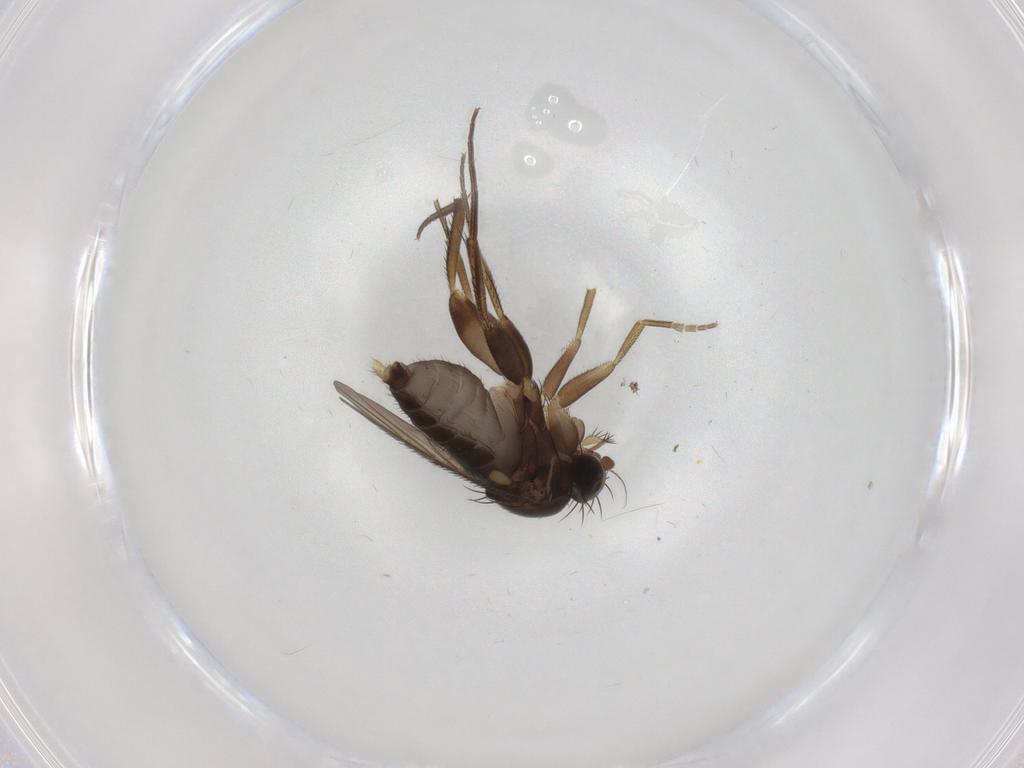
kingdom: Animalia
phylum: Arthropoda
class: Insecta
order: Diptera
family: Phoridae
